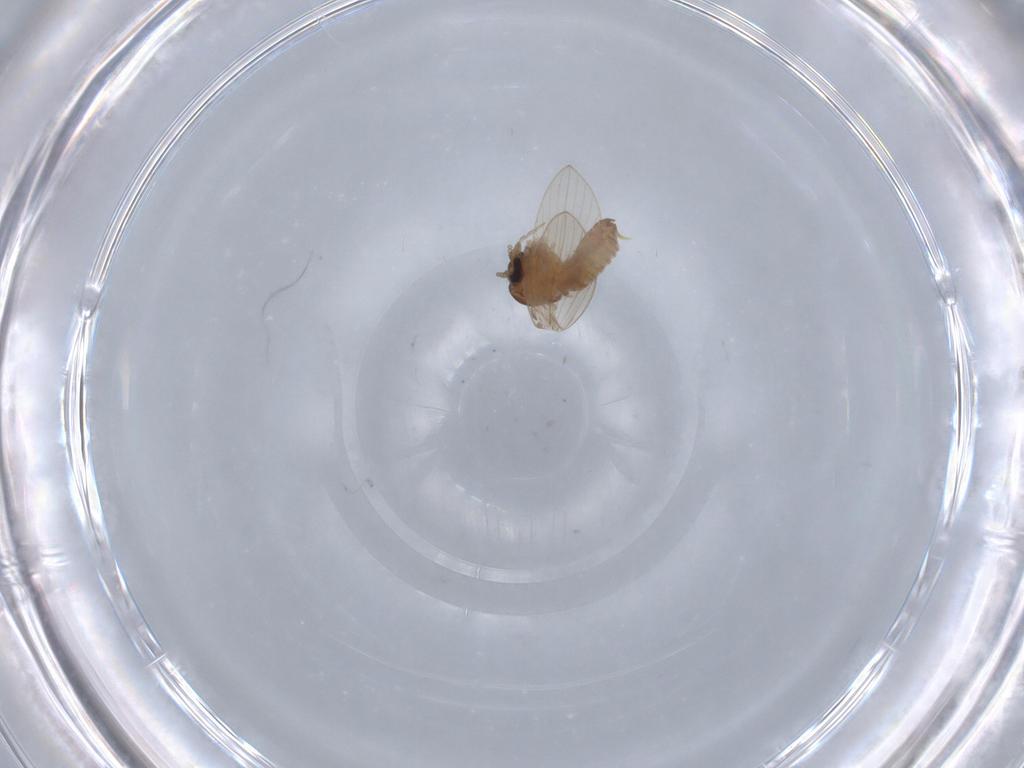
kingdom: Animalia
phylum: Arthropoda
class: Insecta
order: Diptera
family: Psychodidae
